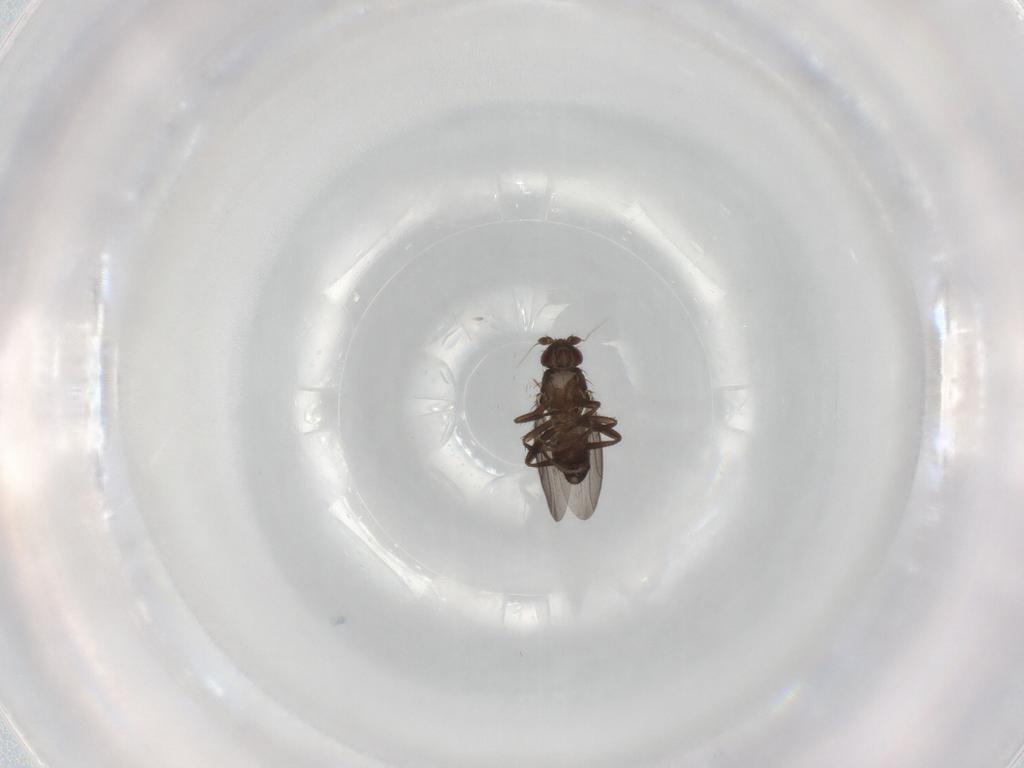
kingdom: Animalia
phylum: Arthropoda
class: Insecta
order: Diptera
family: Sphaeroceridae
